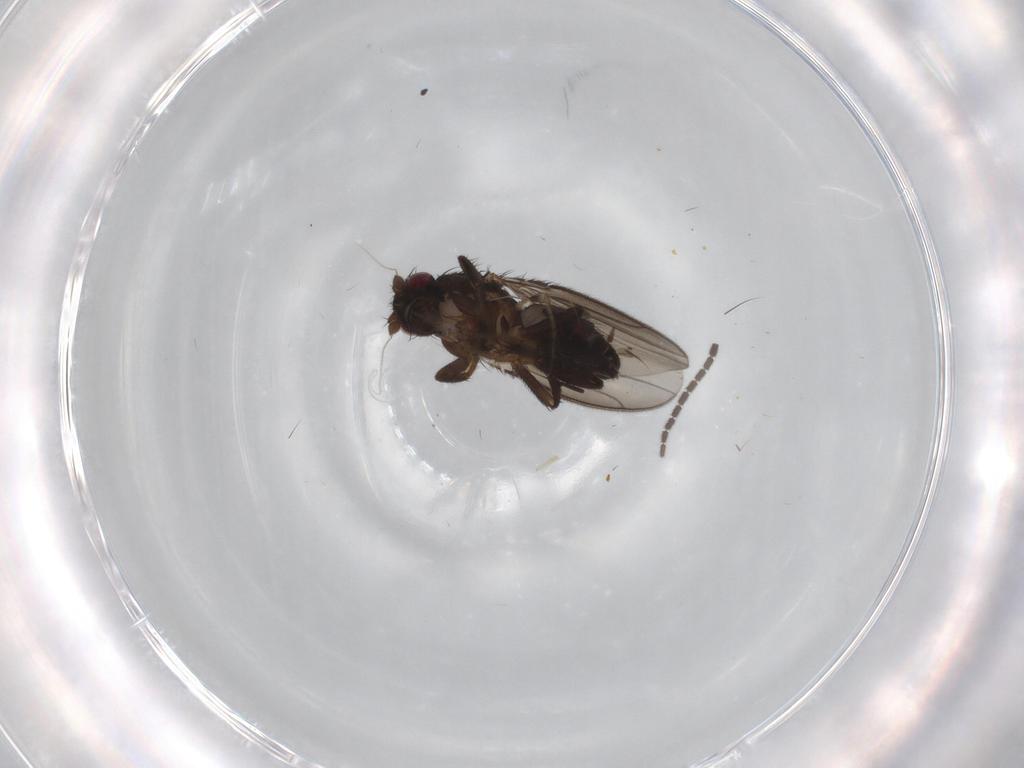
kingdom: Animalia
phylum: Arthropoda
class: Insecta
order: Diptera
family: Sciaridae
